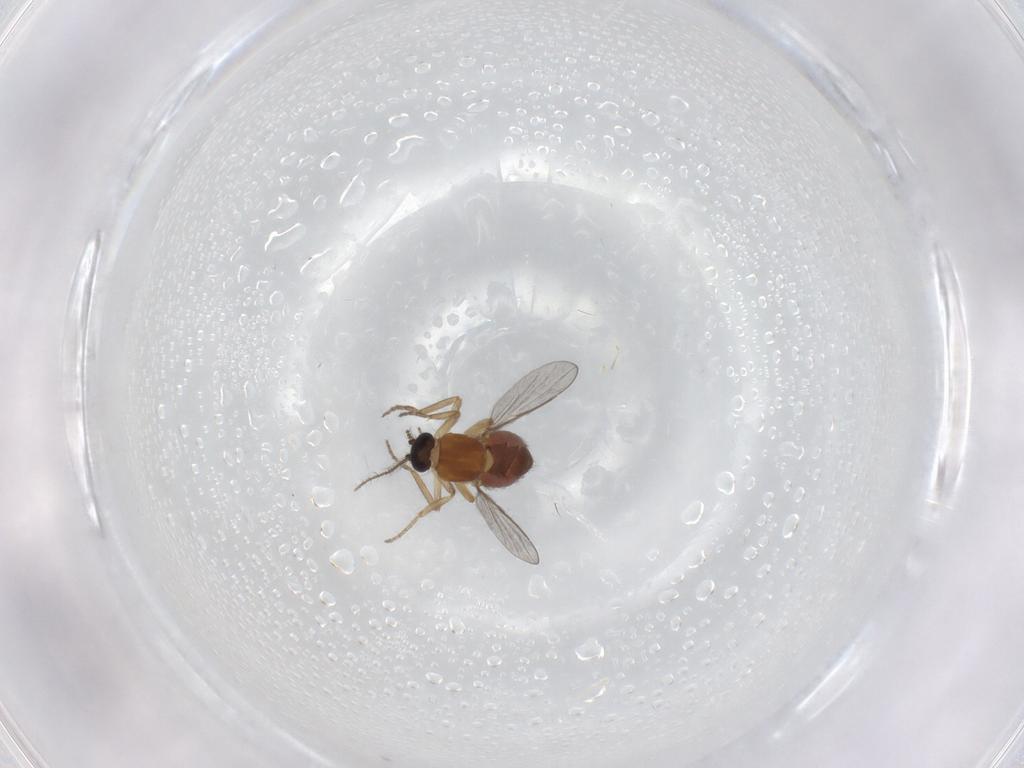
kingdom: Animalia
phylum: Arthropoda
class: Insecta
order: Diptera
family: Ceratopogonidae
